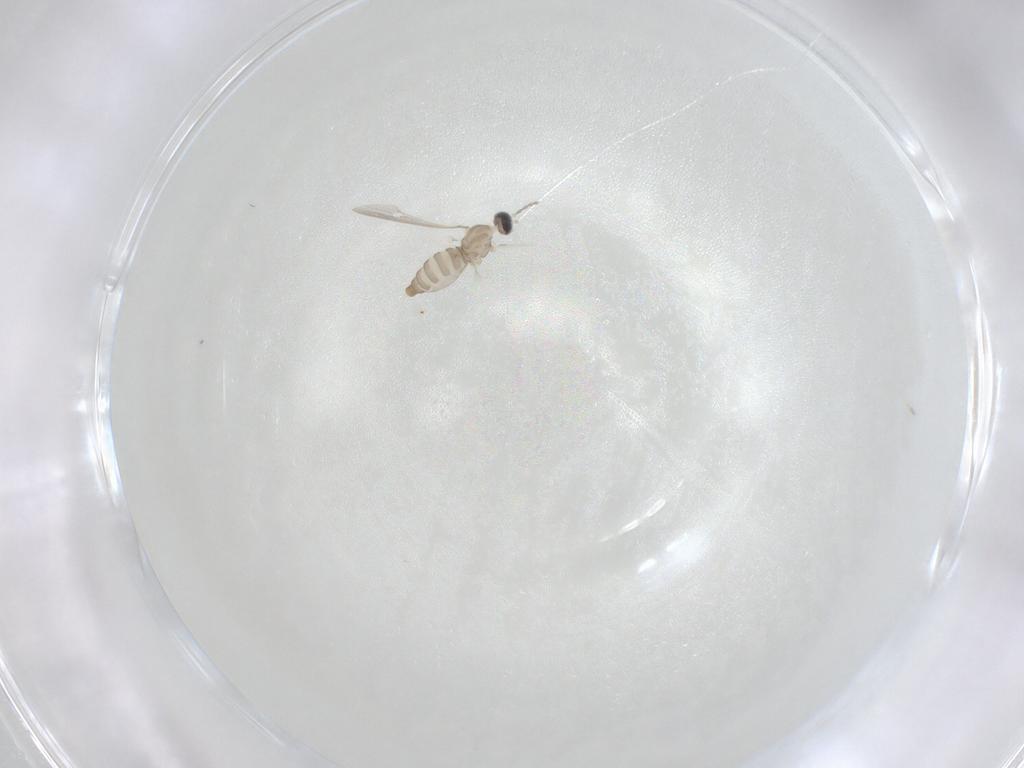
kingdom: Animalia
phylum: Arthropoda
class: Insecta
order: Diptera
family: Cecidomyiidae
